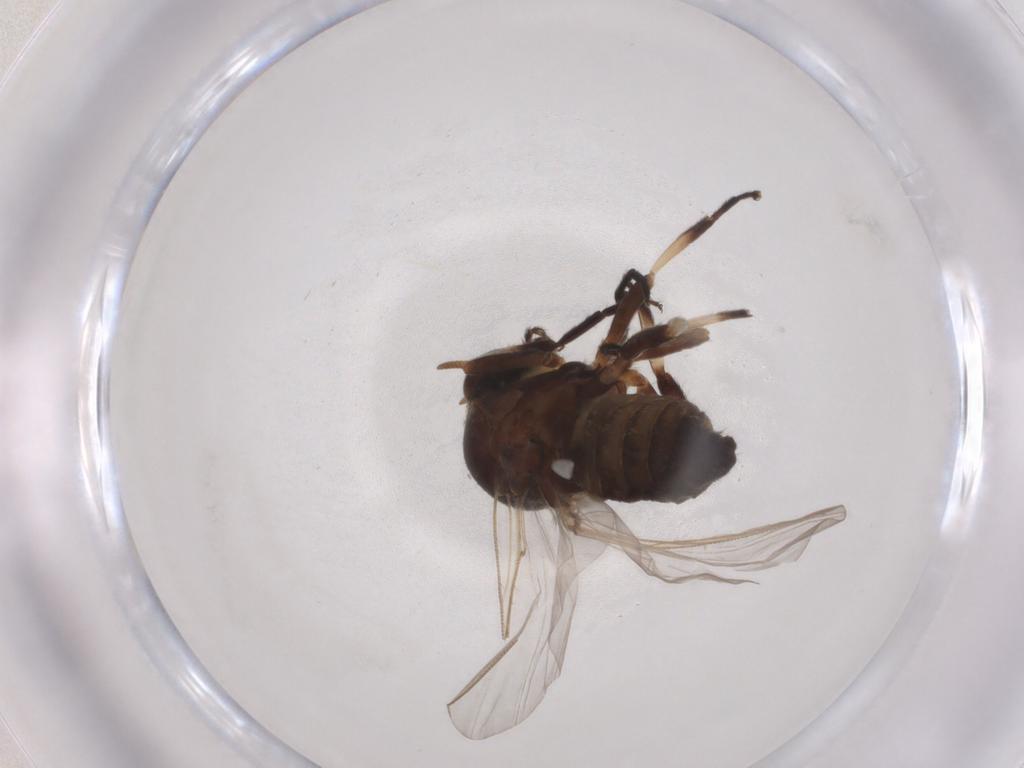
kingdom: Animalia
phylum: Arthropoda
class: Insecta
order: Diptera
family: Simuliidae
